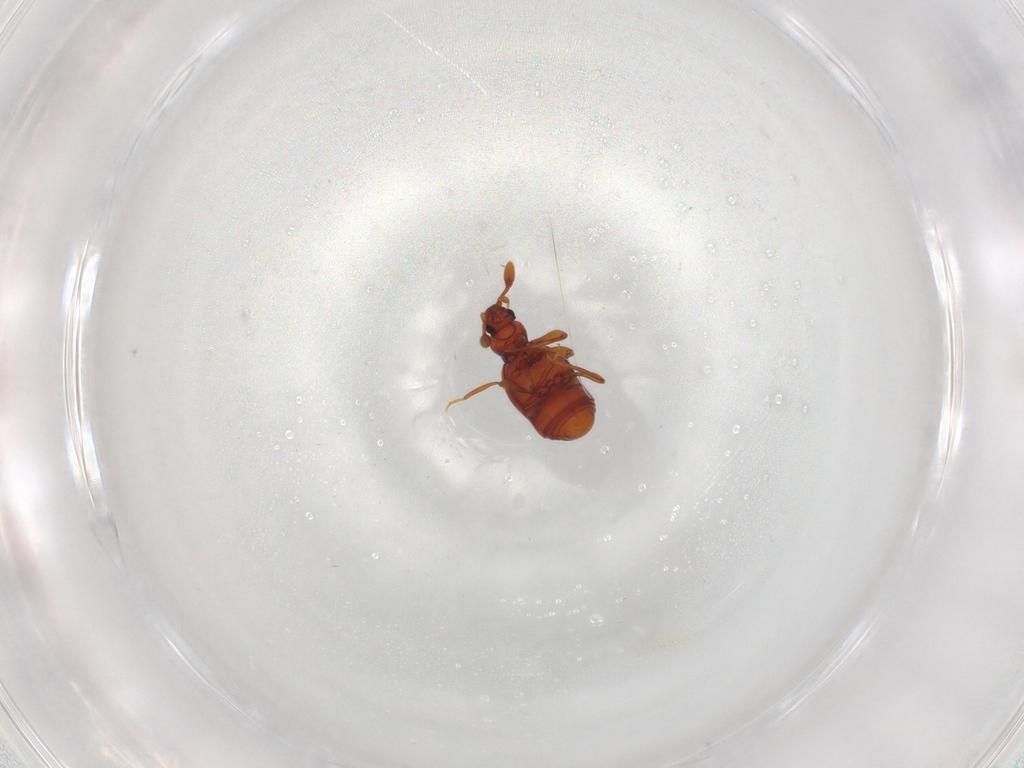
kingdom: Animalia
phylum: Arthropoda
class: Insecta
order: Coleoptera
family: Staphylinidae
